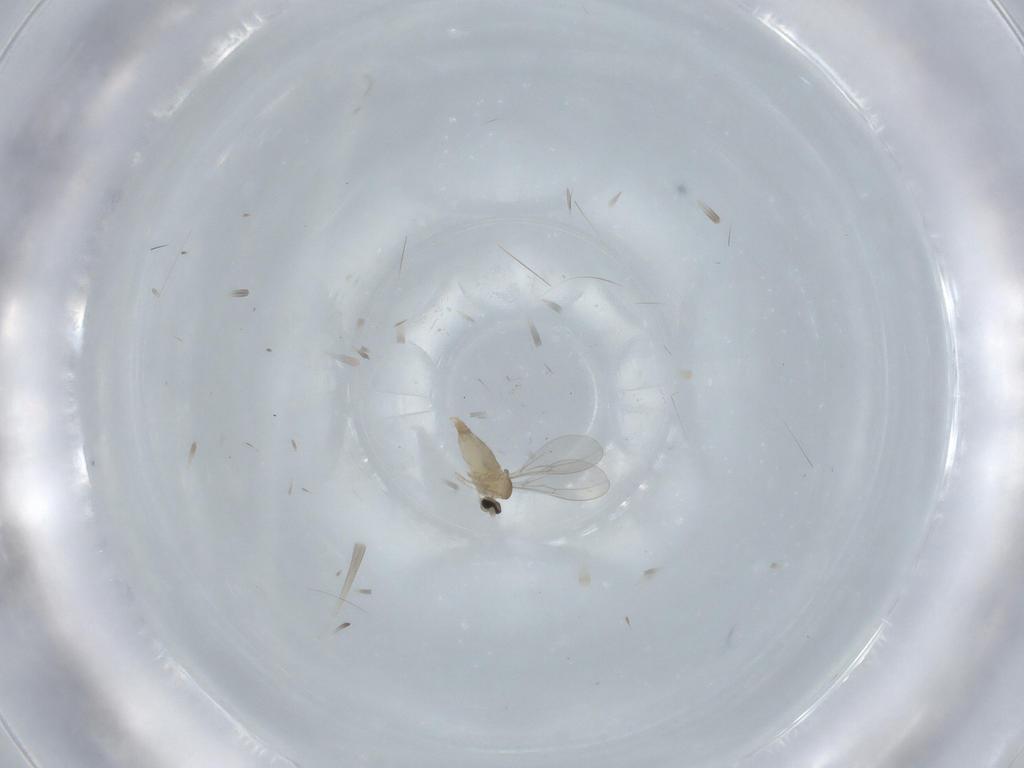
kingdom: Animalia
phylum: Arthropoda
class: Insecta
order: Diptera
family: Cecidomyiidae
